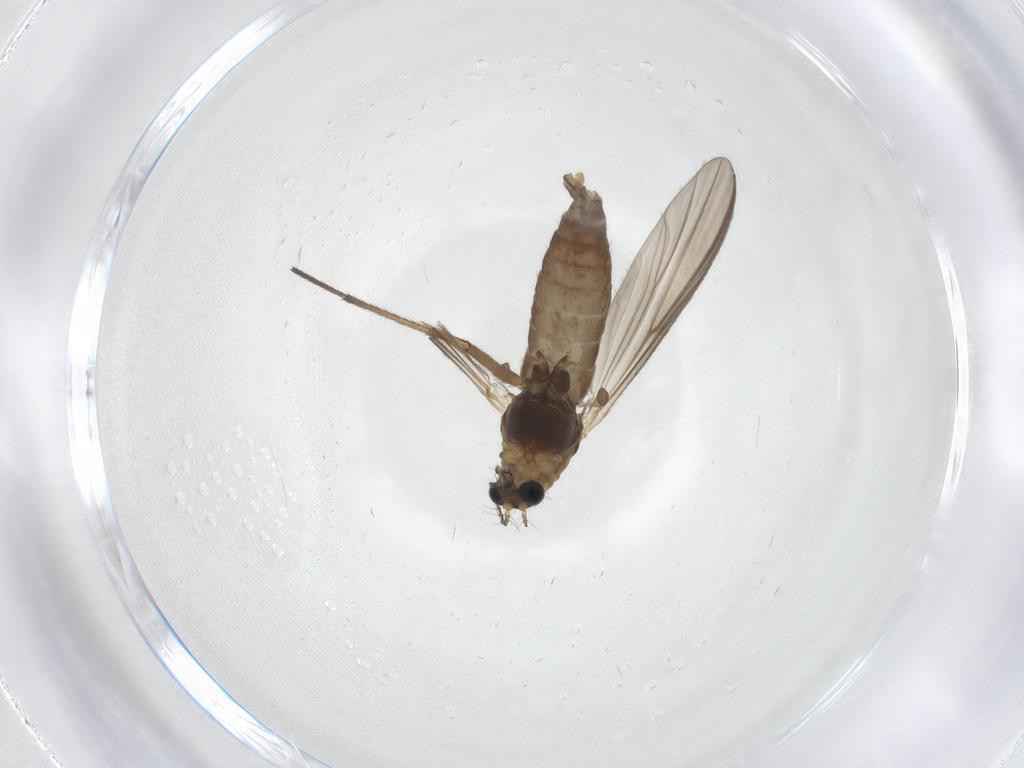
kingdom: Animalia
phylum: Arthropoda
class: Insecta
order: Diptera
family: Chironomidae
